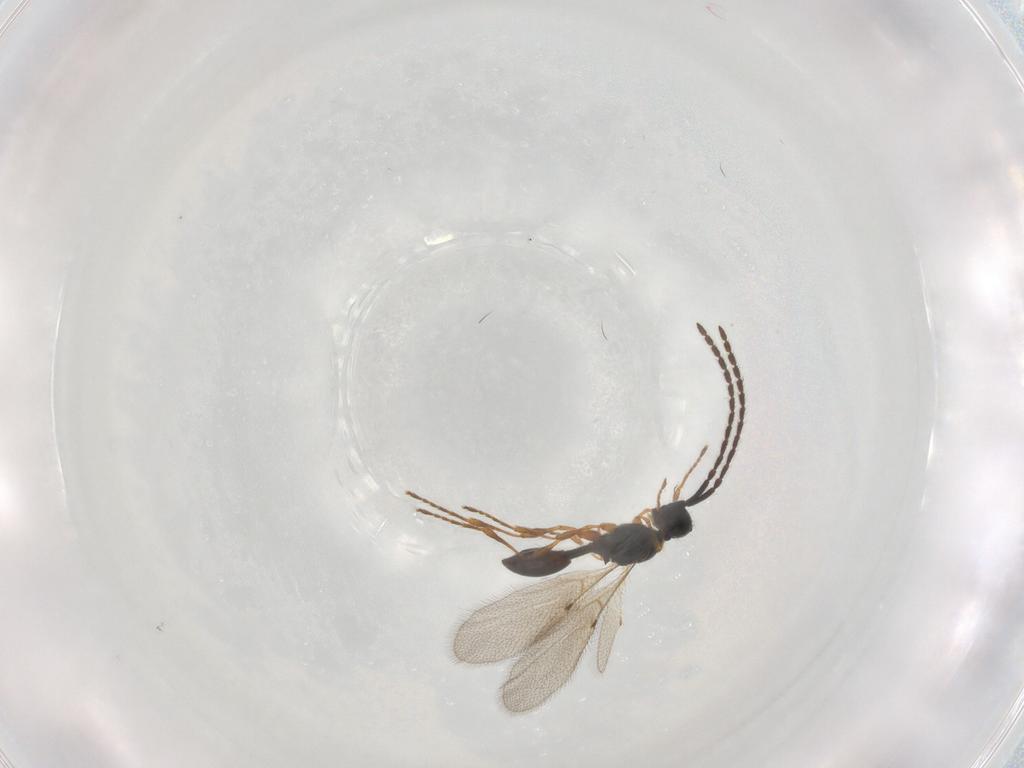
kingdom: Animalia
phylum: Arthropoda
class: Insecta
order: Hymenoptera
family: Diapriidae
